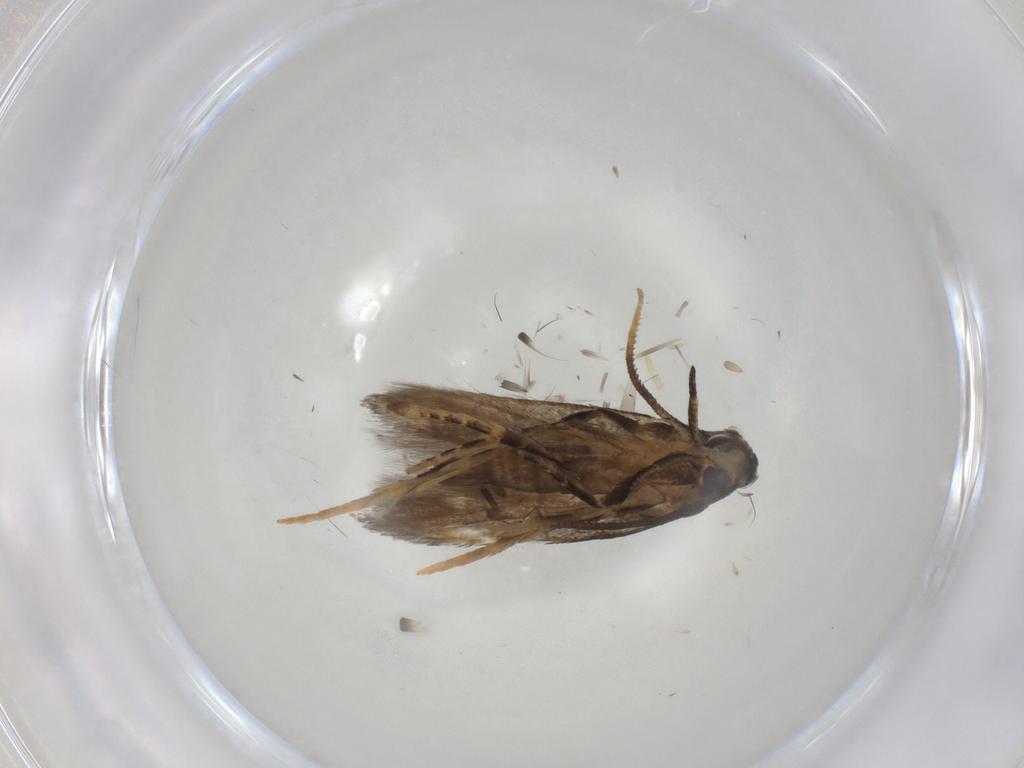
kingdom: Animalia
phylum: Arthropoda
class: Insecta
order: Lepidoptera
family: Cosmopterigidae
